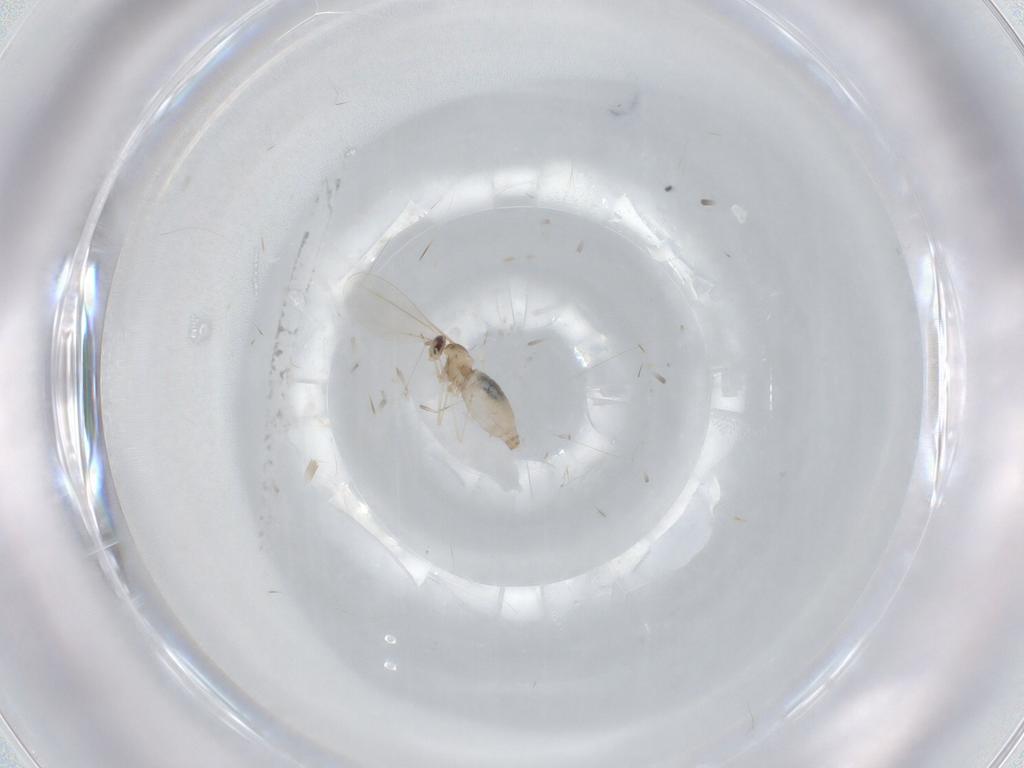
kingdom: Animalia
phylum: Arthropoda
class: Insecta
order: Diptera
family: Cecidomyiidae
